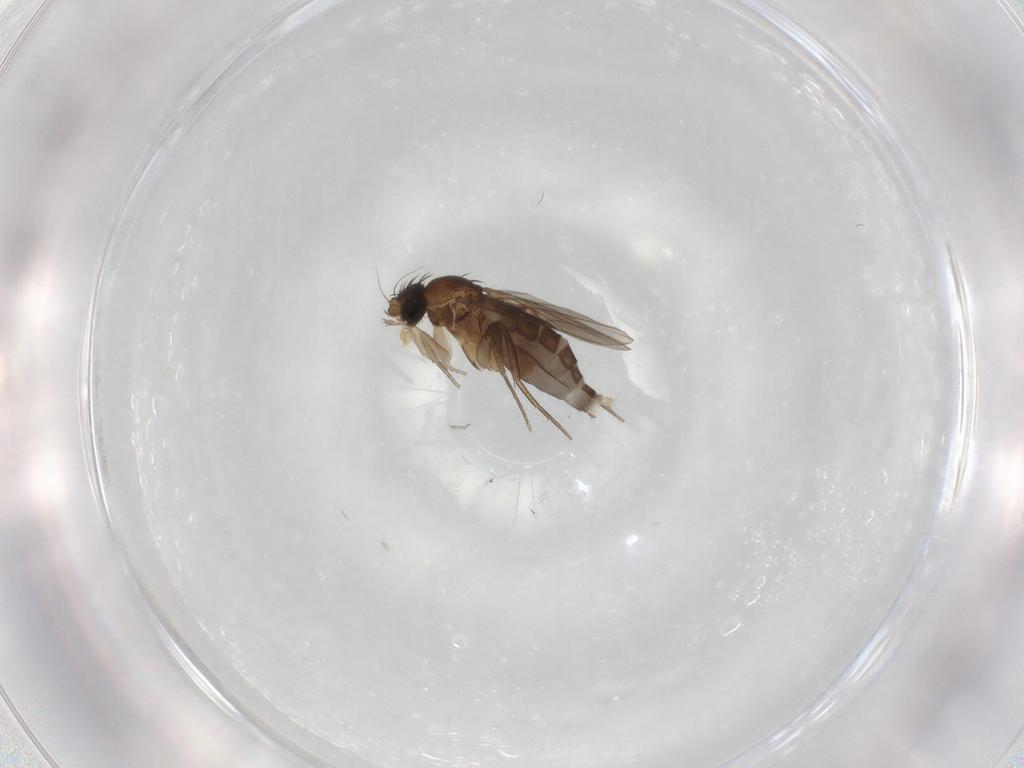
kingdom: Animalia
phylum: Arthropoda
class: Insecta
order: Diptera
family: Phoridae
